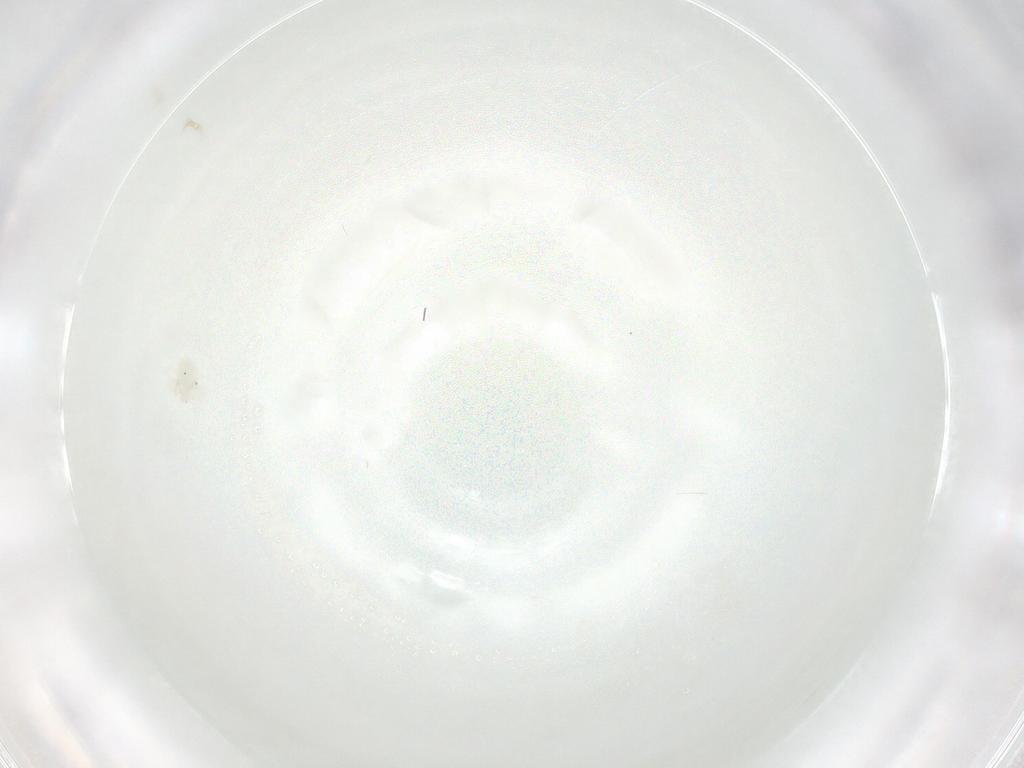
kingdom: Animalia
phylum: Arthropoda
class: Arachnida
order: Trombidiformes
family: Anystidae
